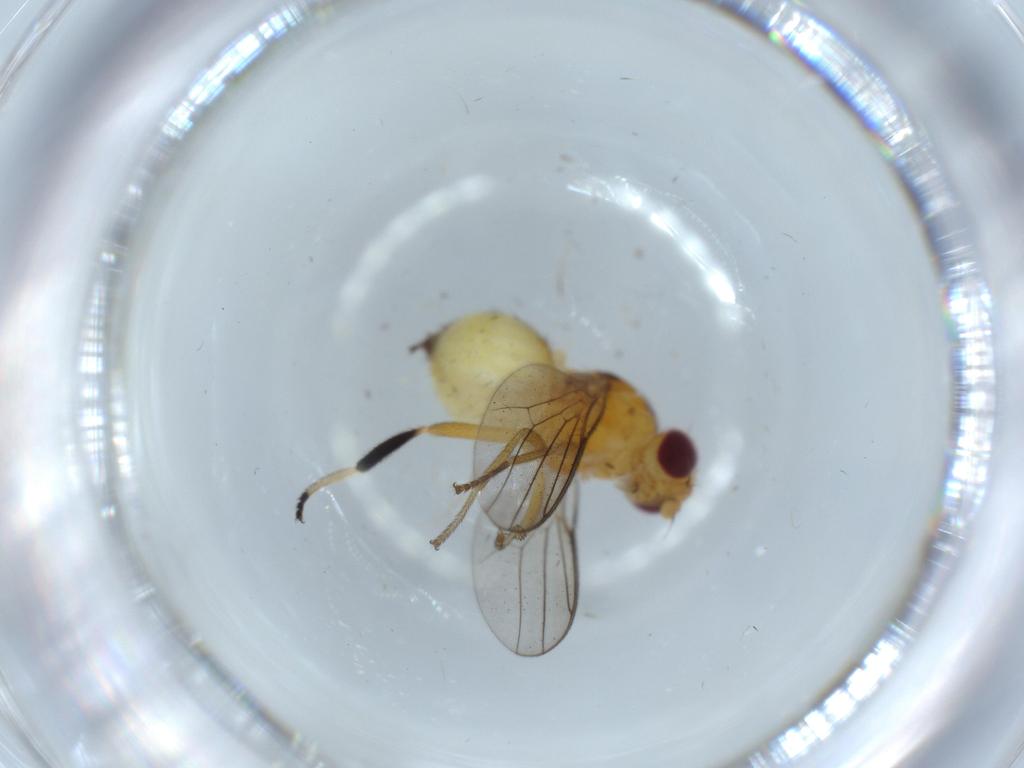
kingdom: Animalia
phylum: Arthropoda
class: Insecta
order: Diptera
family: Chloropidae
